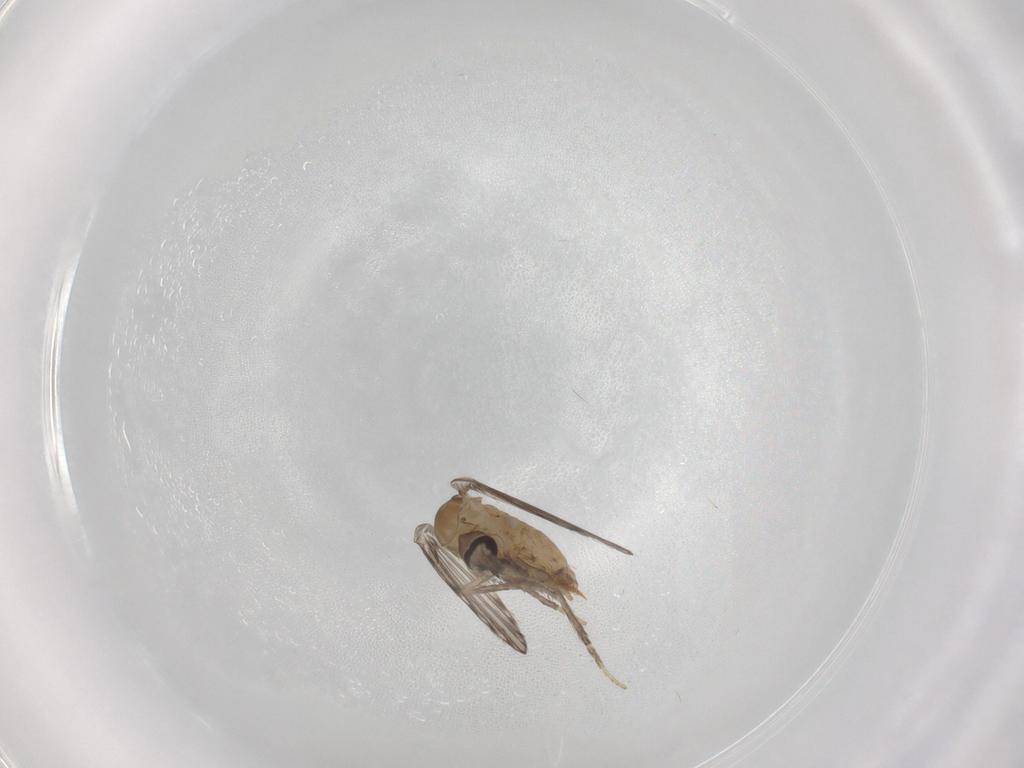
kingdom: Animalia
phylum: Arthropoda
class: Insecta
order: Diptera
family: Psychodidae
